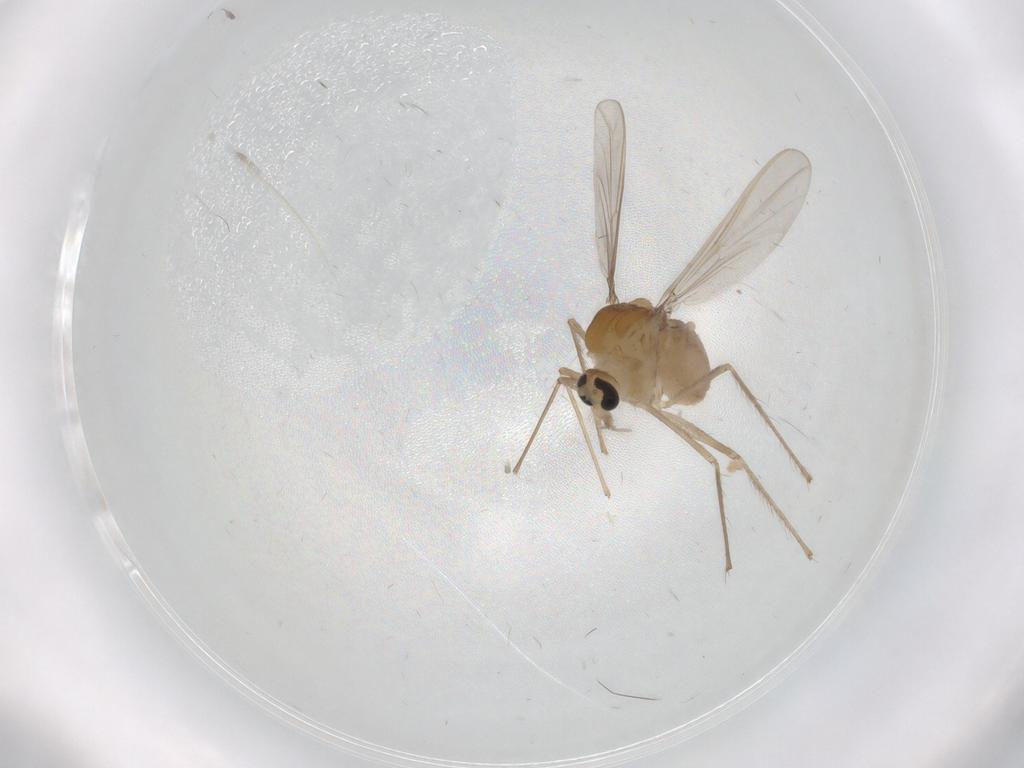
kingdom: Animalia
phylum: Arthropoda
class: Insecta
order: Diptera
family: Chironomidae
